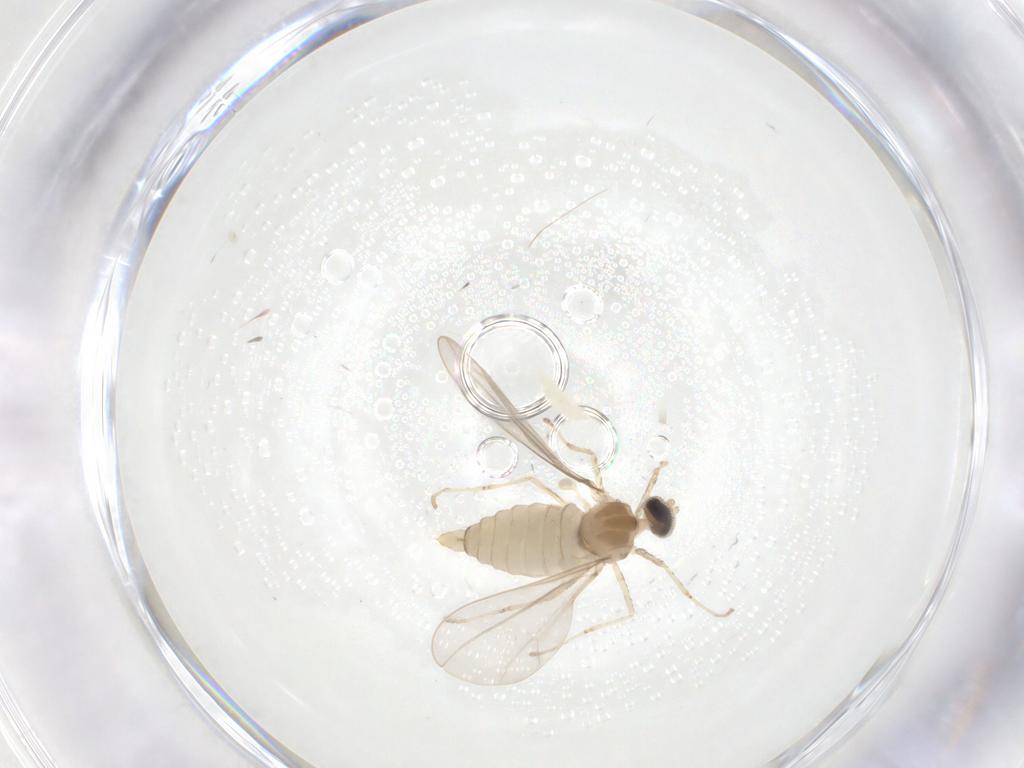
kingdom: Animalia
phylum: Arthropoda
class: Insecta
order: Diptera
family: Cecidomyiidae
